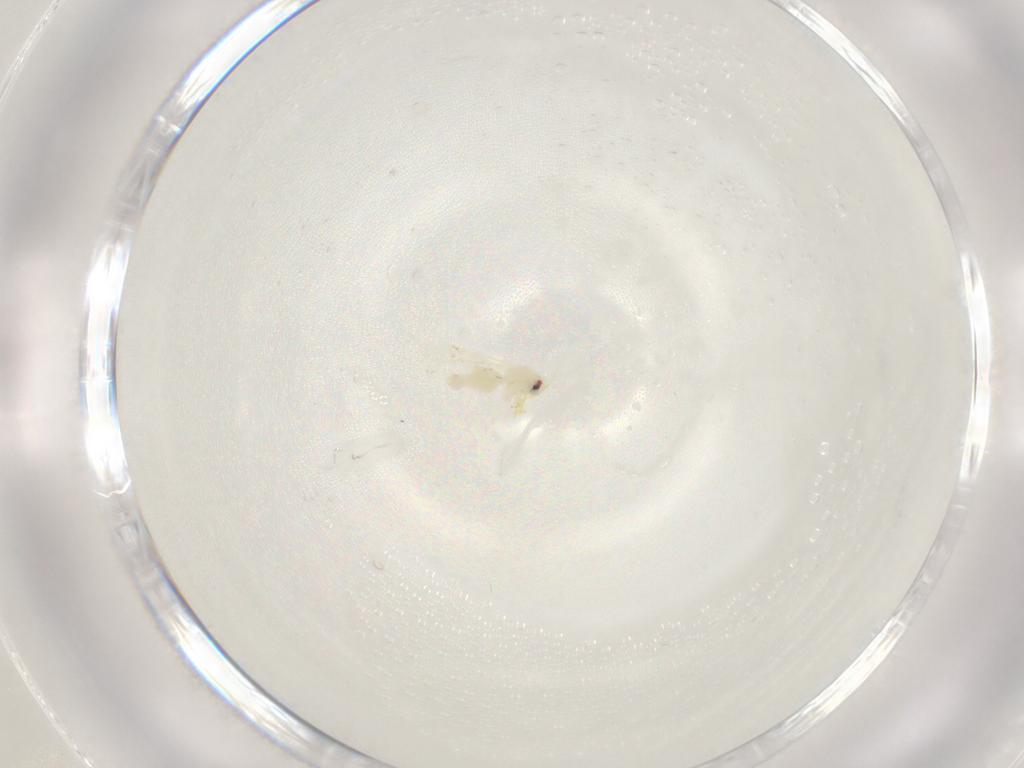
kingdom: Animalia
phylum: Arthropoda
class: Insecta
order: Hemiptera
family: Aleyrodidae
